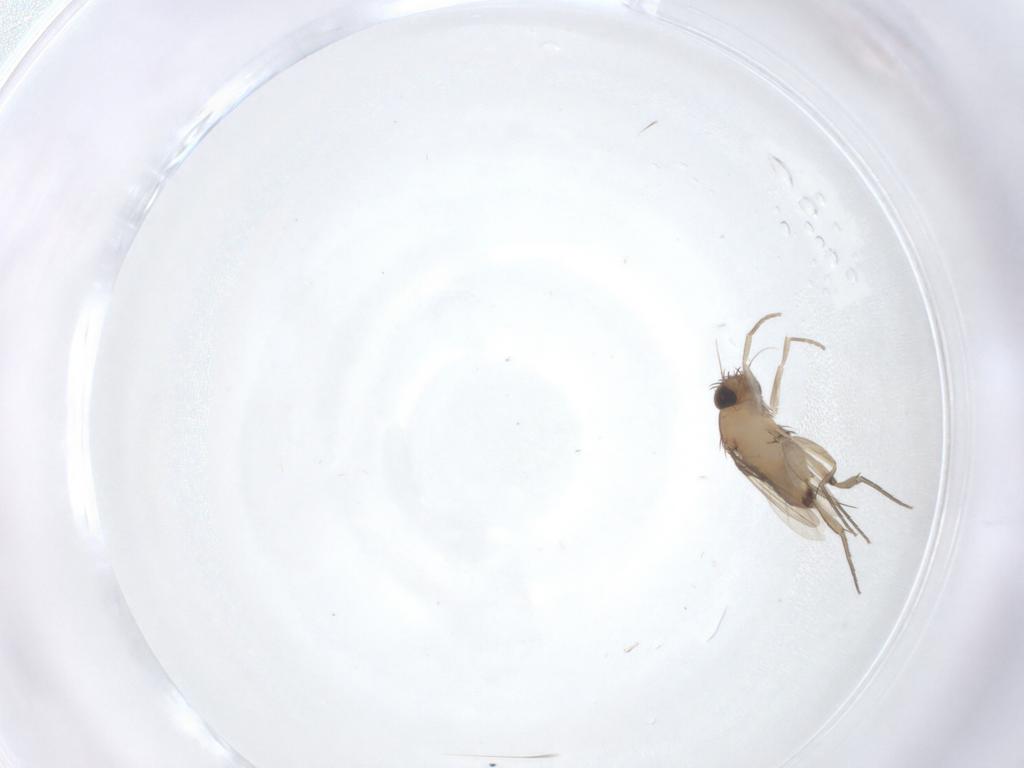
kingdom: Animalia
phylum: Arthropoda
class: Insecta
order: Diptera
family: Phoridae
